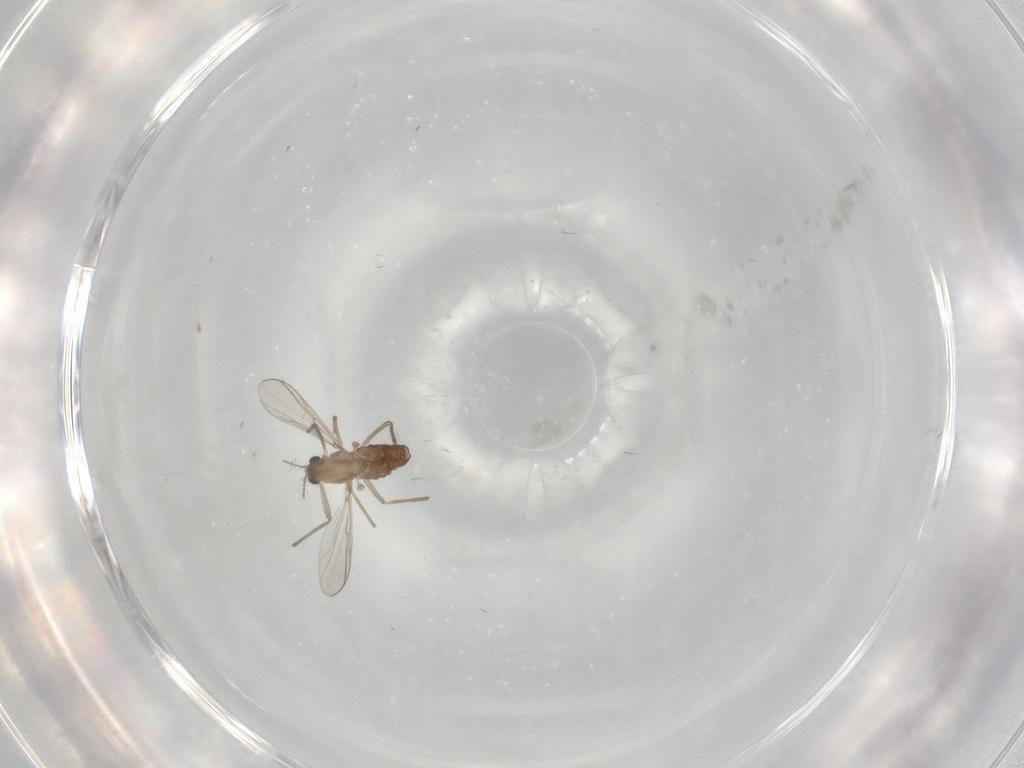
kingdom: Animalia
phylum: Arthropoda
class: Insecta
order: Diptera
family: Chironomidae
